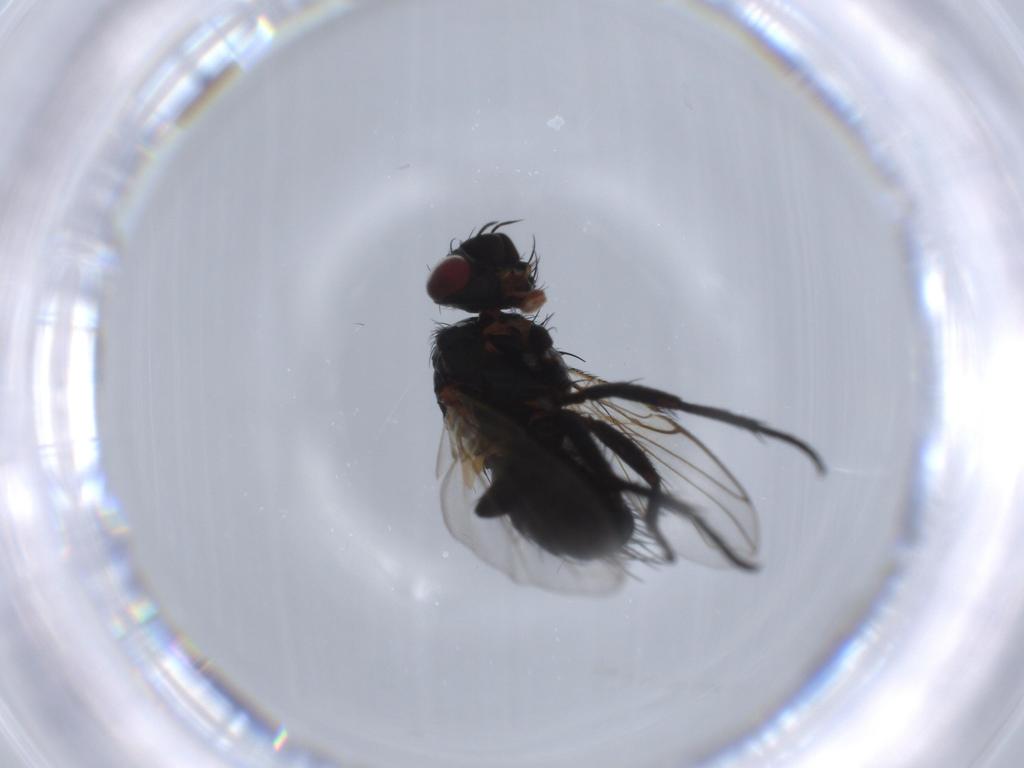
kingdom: Animalia
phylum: Arthropoda
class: Insecta
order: Diptera
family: Tachinidae
